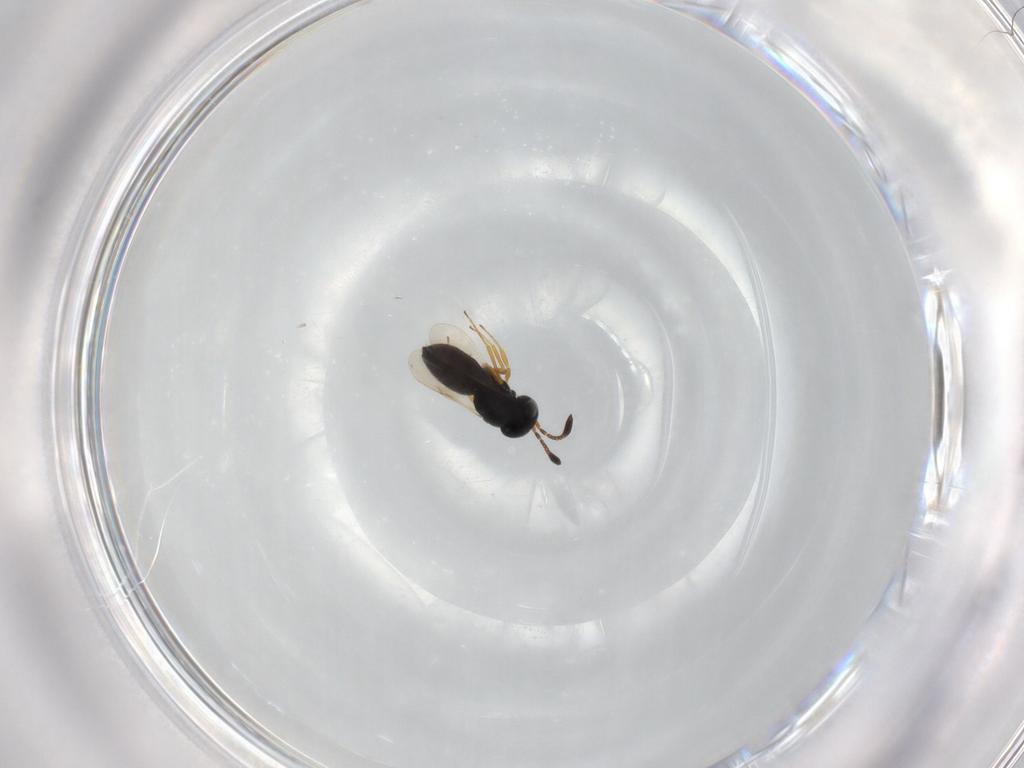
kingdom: Animalia
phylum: Arthropoda
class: Insecta
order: Hymenoptera
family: Scelionidae
